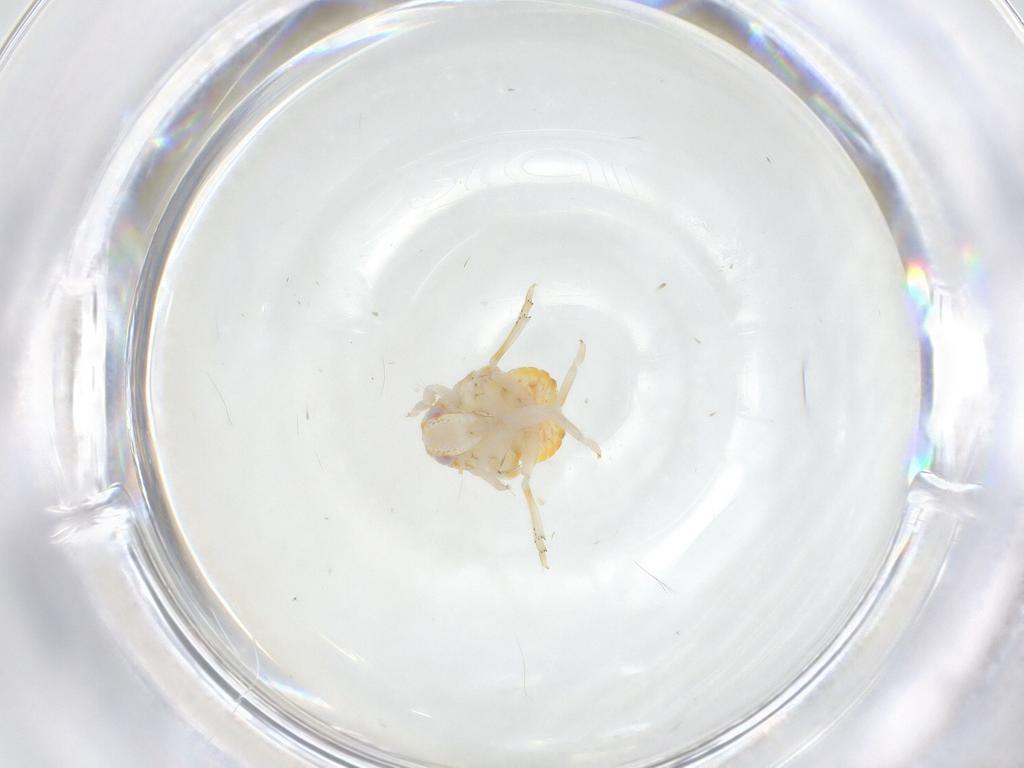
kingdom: Animalia
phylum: Arthropoda
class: Insecta
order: Hemiptera
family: Fulgoroidea_incertae_sedis
